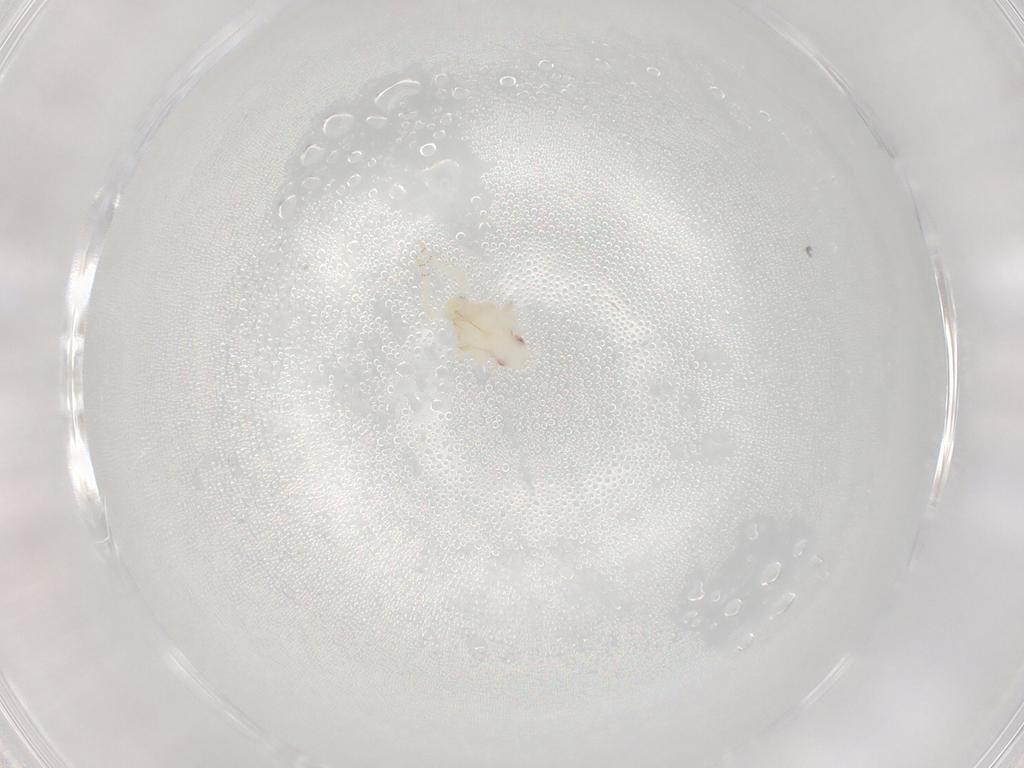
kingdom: Animalia
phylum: Arthropoda
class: Insecta
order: Hemiptera
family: Flatidae
